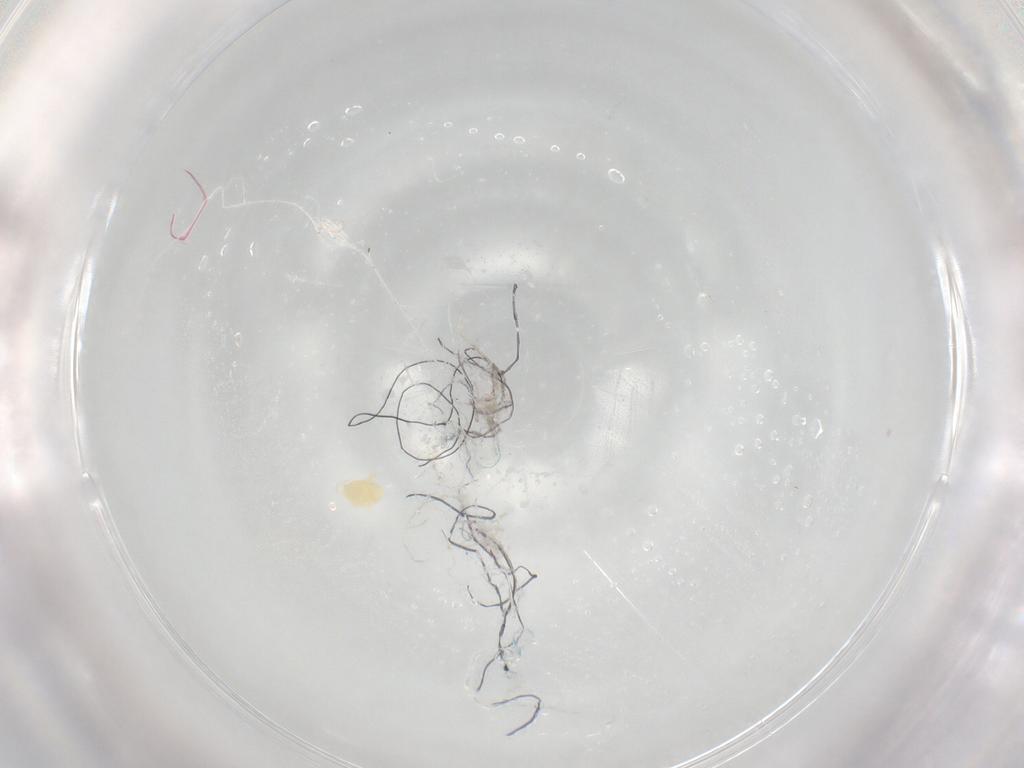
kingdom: Animalia
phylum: Arthropoda
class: Arachnida
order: Trombidiformes
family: Eupodidae
